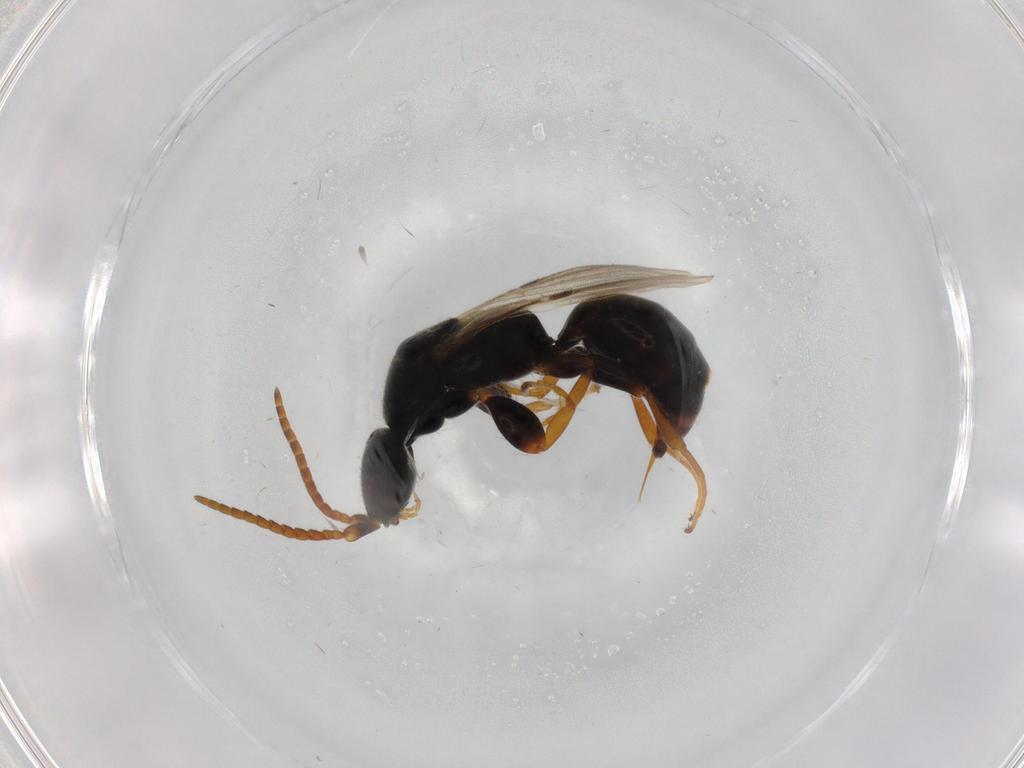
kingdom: Animalia
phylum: Arthropoda
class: Insecta
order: Hymenoptera
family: Bethylidae
